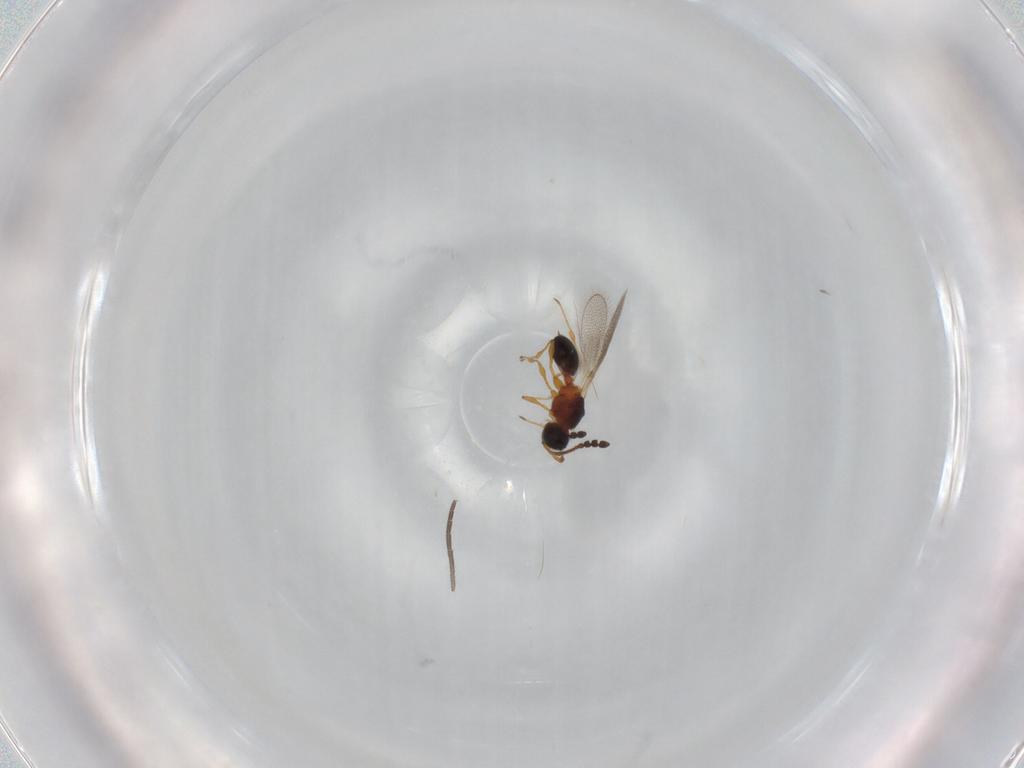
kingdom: Animalia
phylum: Arthropoda
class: Insecta
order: Hymenoptera
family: Diapriidae
